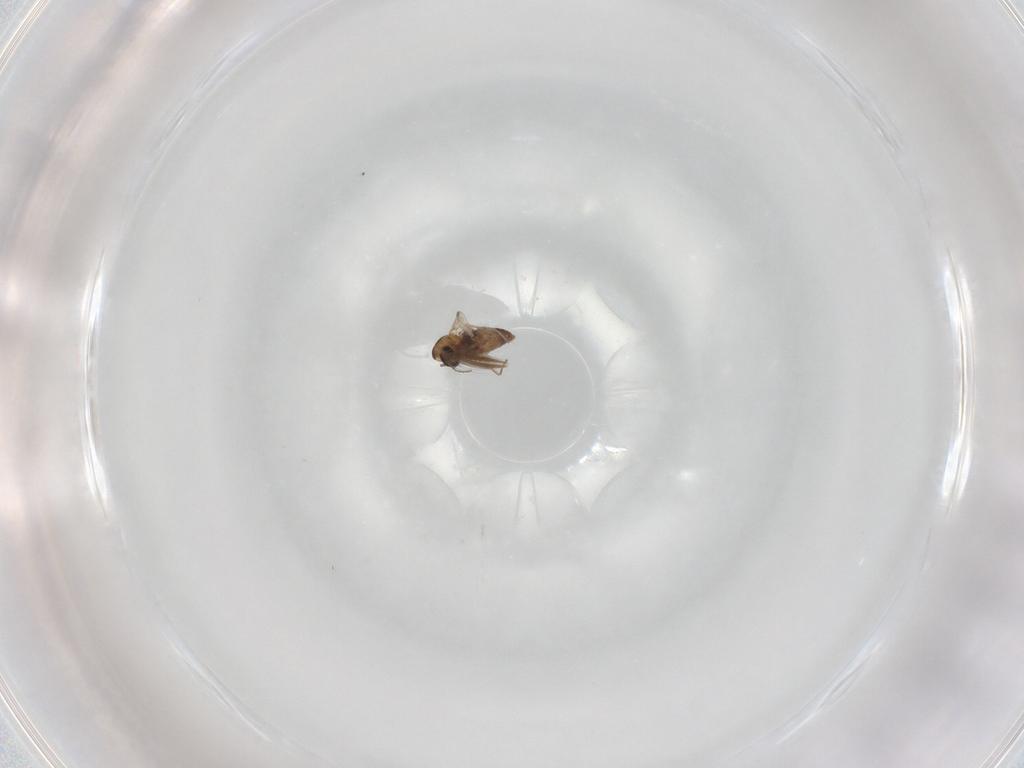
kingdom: Animalia
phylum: Arthropoda
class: Insecta
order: Diptera
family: Chironomidae
